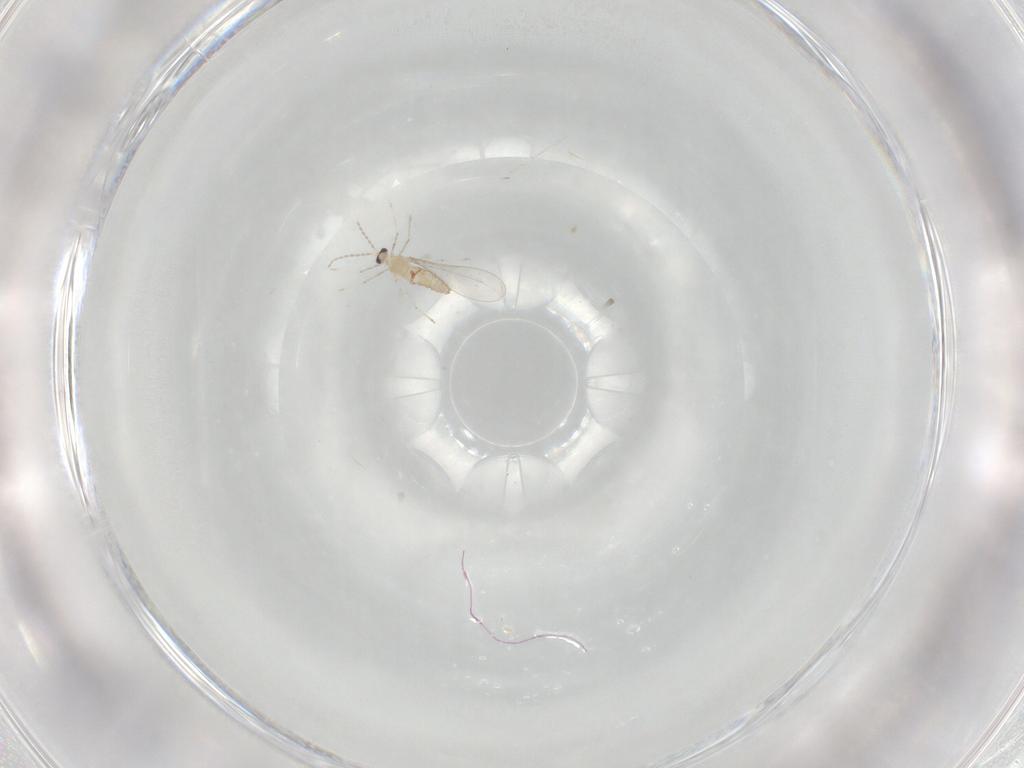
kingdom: Animalia
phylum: Arthropoda
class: Insecta
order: Diptera
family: Cecidomyiidae
